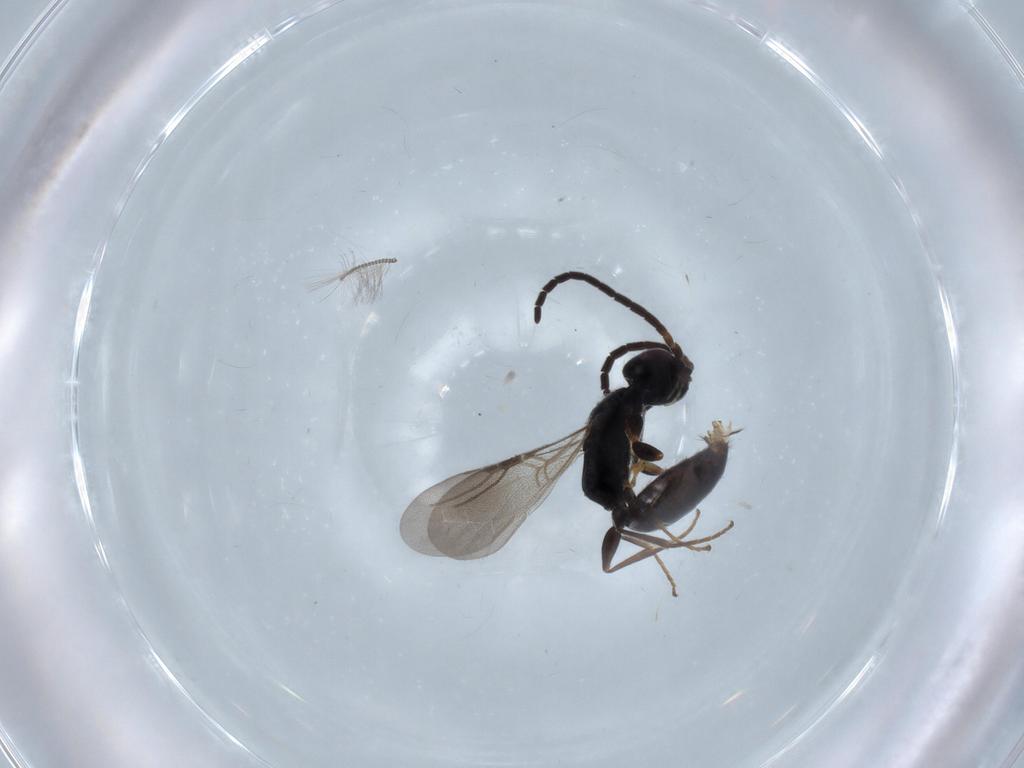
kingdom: Animalia
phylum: Arthropoda
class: Insecta
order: Hymenoptera
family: Bethylidae
